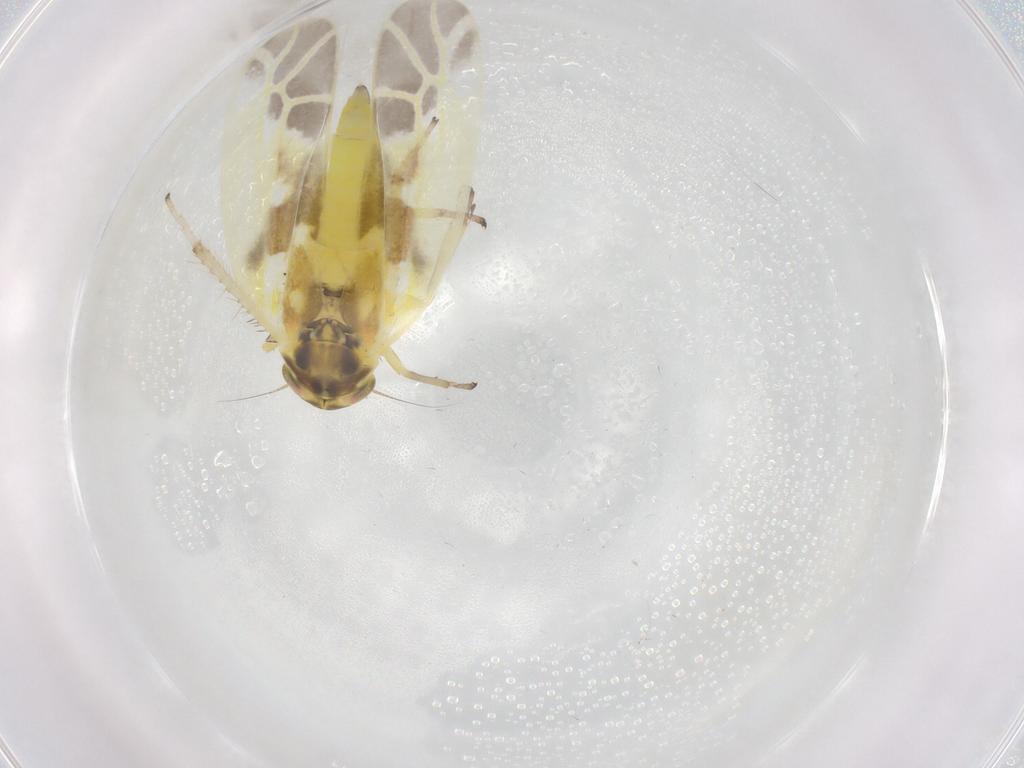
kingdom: Animalia
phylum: Arthropoda
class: Insecta
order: Hemiptera
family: Cicadellidae
